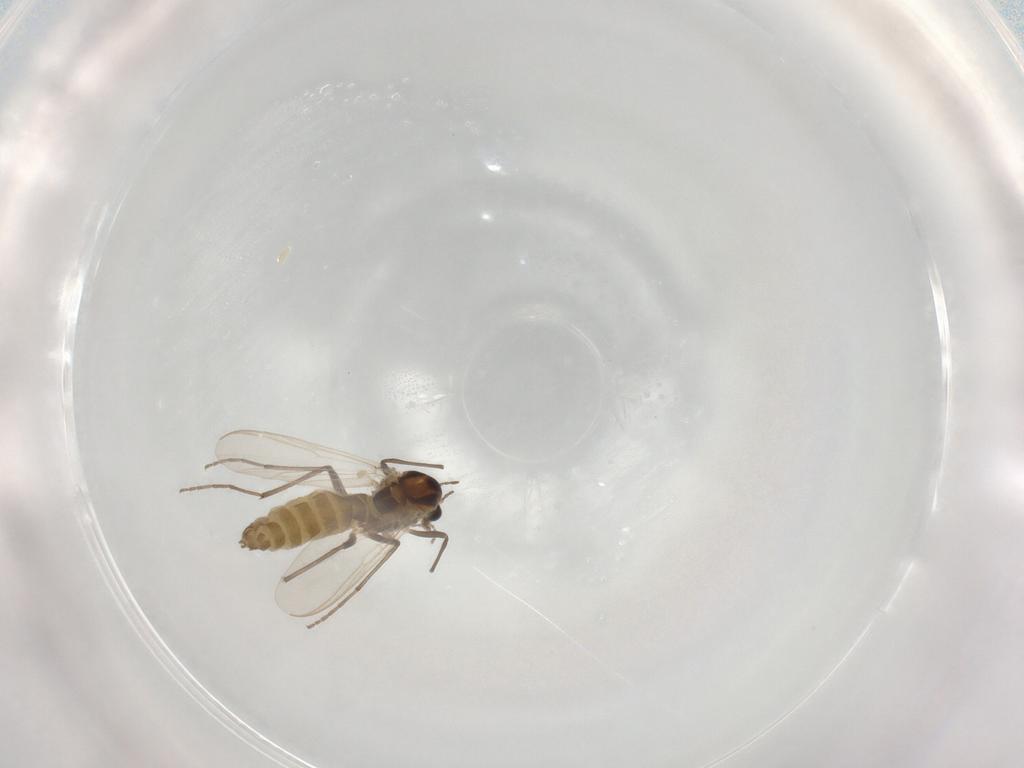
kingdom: Animalia
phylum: Arthropoda
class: Insecta
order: Diptera
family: Chironomidae
